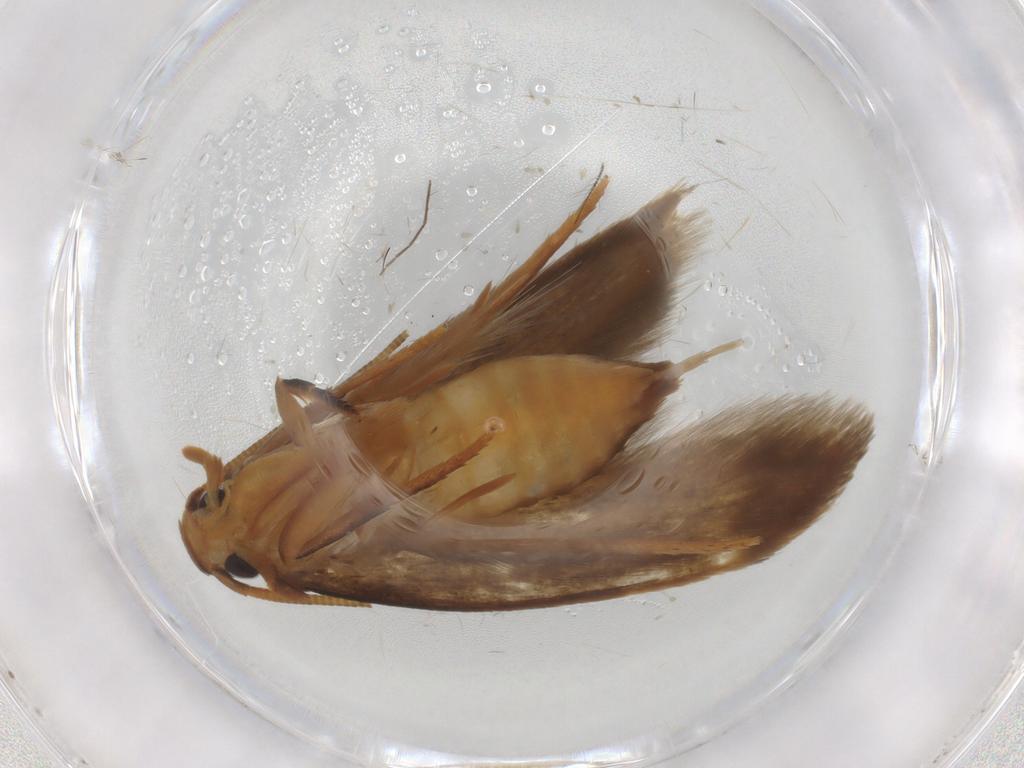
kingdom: Animalia
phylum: Arthropoda
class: Insecta
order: Lepidoptera
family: Tineidae
